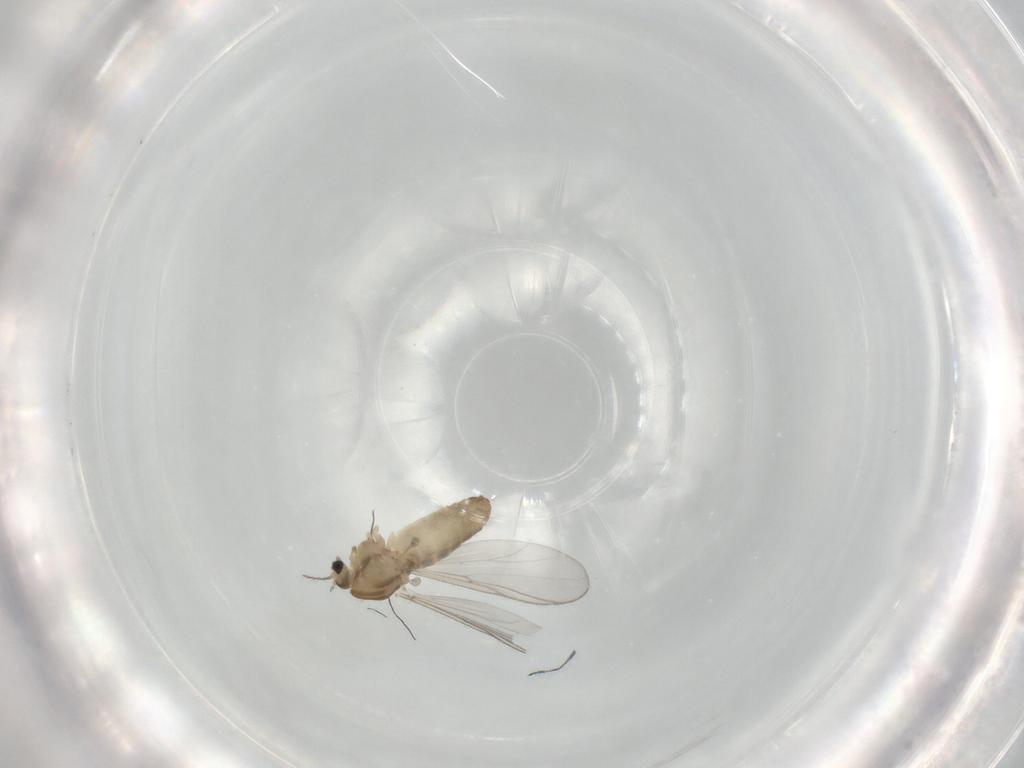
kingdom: Animalia
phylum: Arthropoda
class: Insecta
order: Diptera
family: Chironomidae
